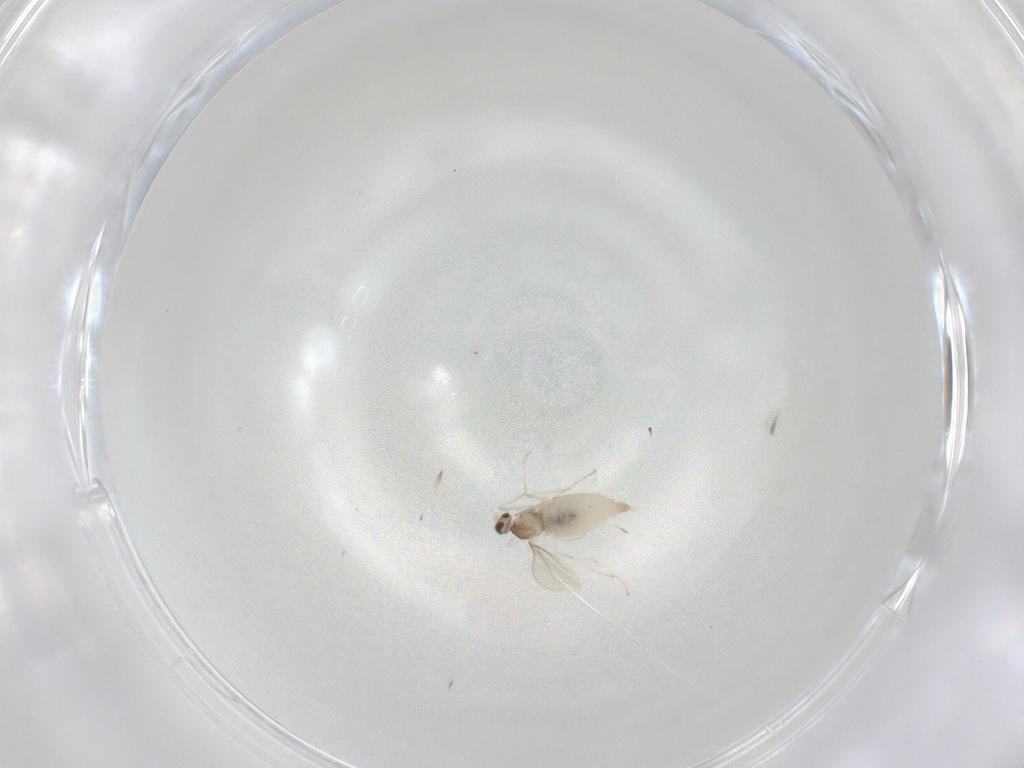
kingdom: Animalia
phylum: Arthropoda
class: Insecta
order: Diptera
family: Cecidomyiidae
